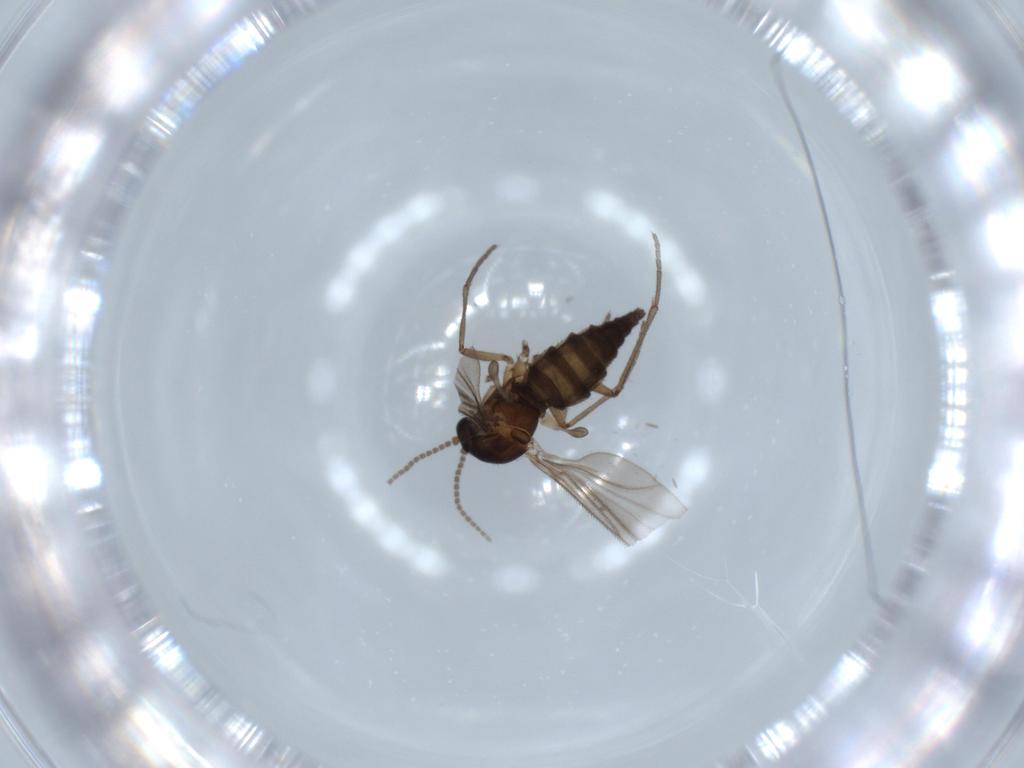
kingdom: Animalia
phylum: Arthropoda
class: Insecta
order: Diptera
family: Sciaridae
